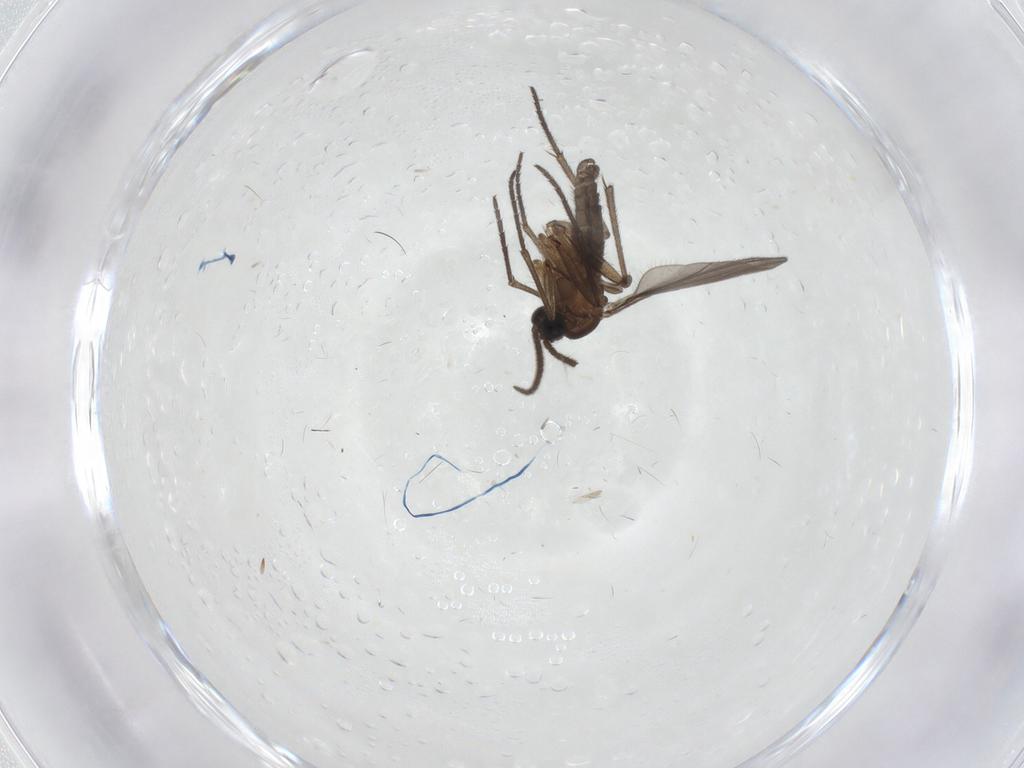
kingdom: Animalia
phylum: Arthropoda
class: Insecta
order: Diptera
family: Sciaridae
